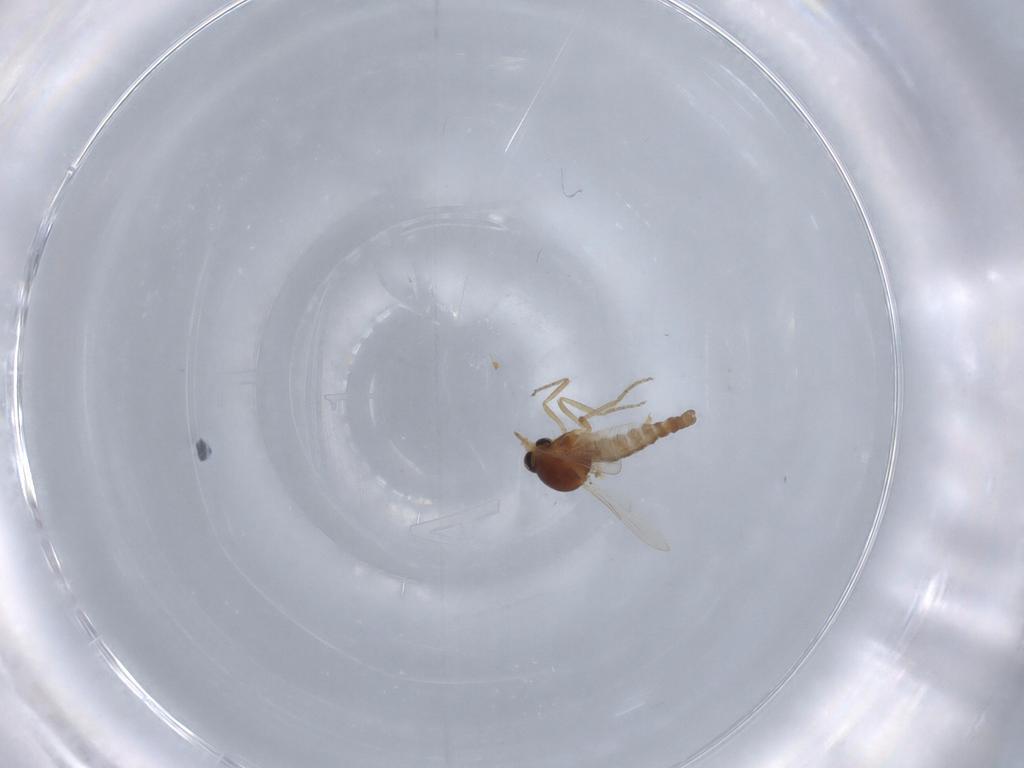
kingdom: Animalia
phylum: Arthropoda
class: Insecta
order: Diptera
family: Ceratopogonidae
